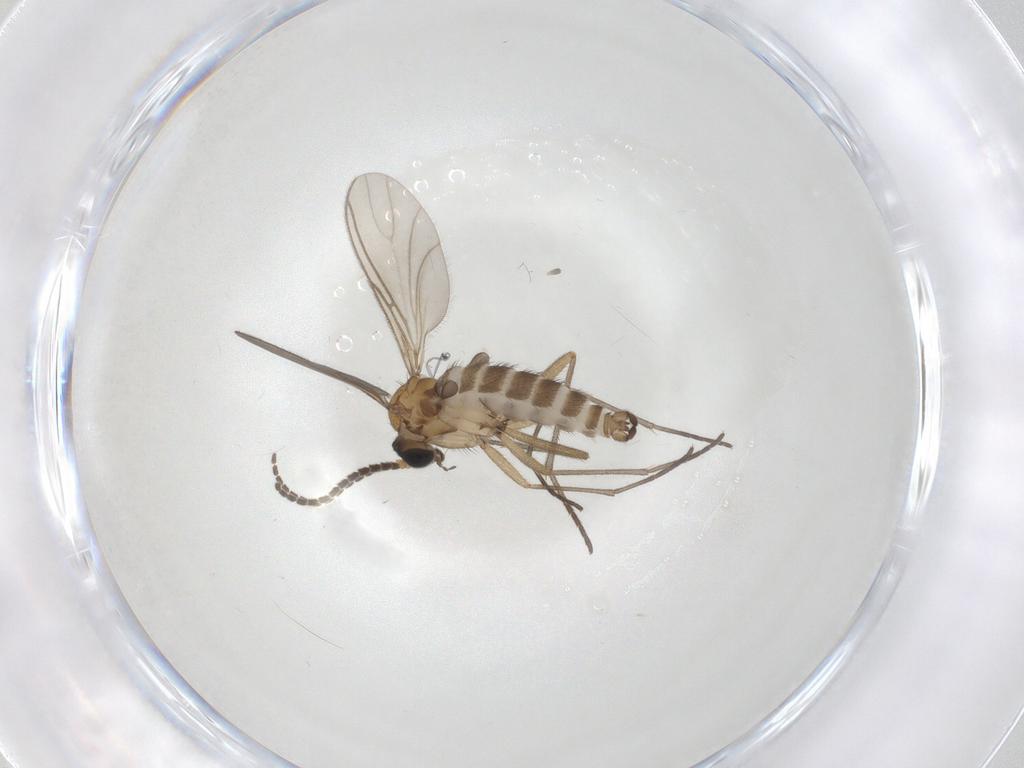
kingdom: Animalia
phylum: Arthropoda
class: Insecta
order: Diptera
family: Sciaridae
